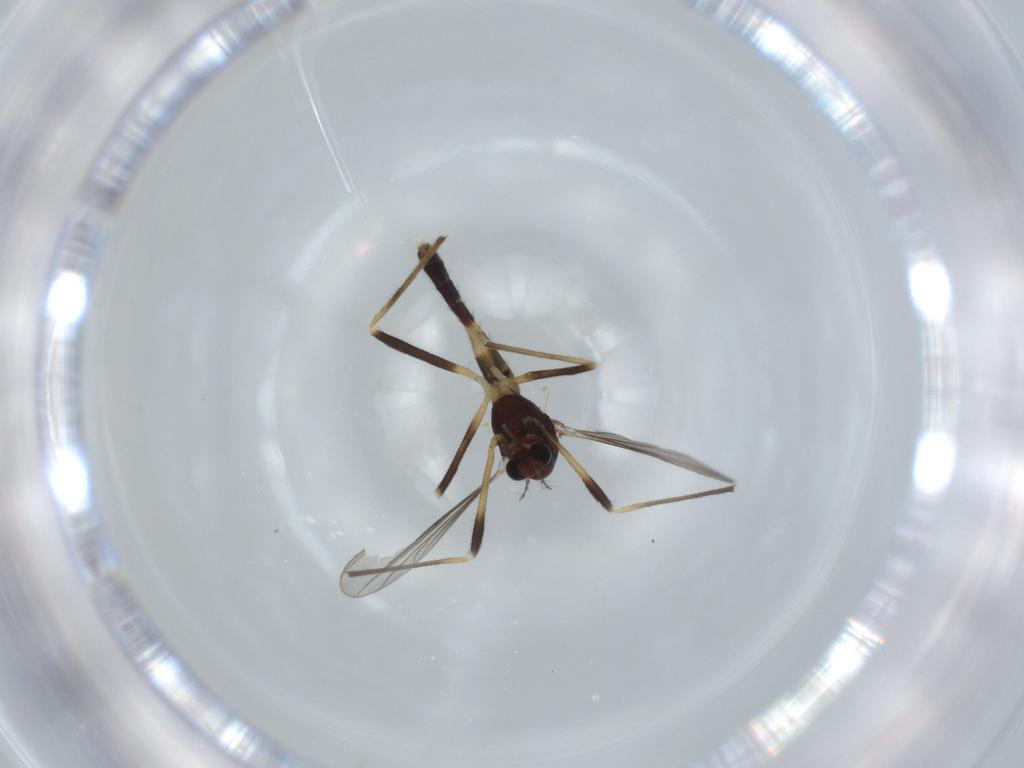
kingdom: Animalia
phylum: Arthropoda
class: Insecta
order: Diptera
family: Chironomidae
